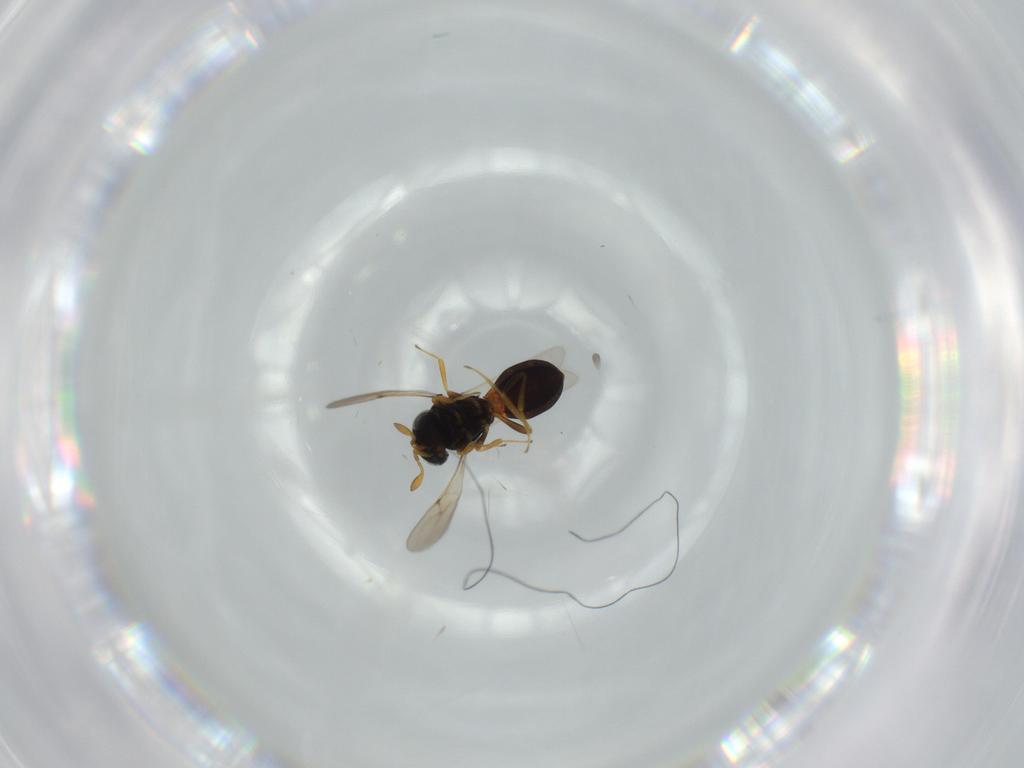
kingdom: Animalia
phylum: Arthropoda
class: Insecta
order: Hymenoptera
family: Scelionidae
